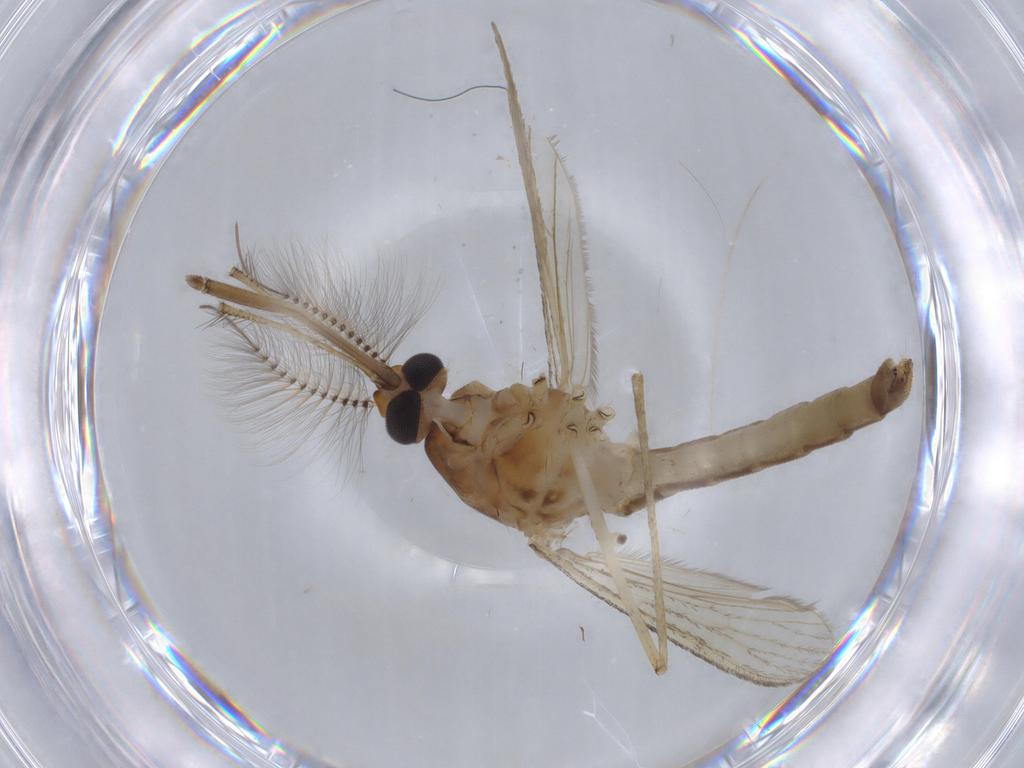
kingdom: Animalia
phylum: Arthropoda
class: Insecta
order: Diptera
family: Culicidae
